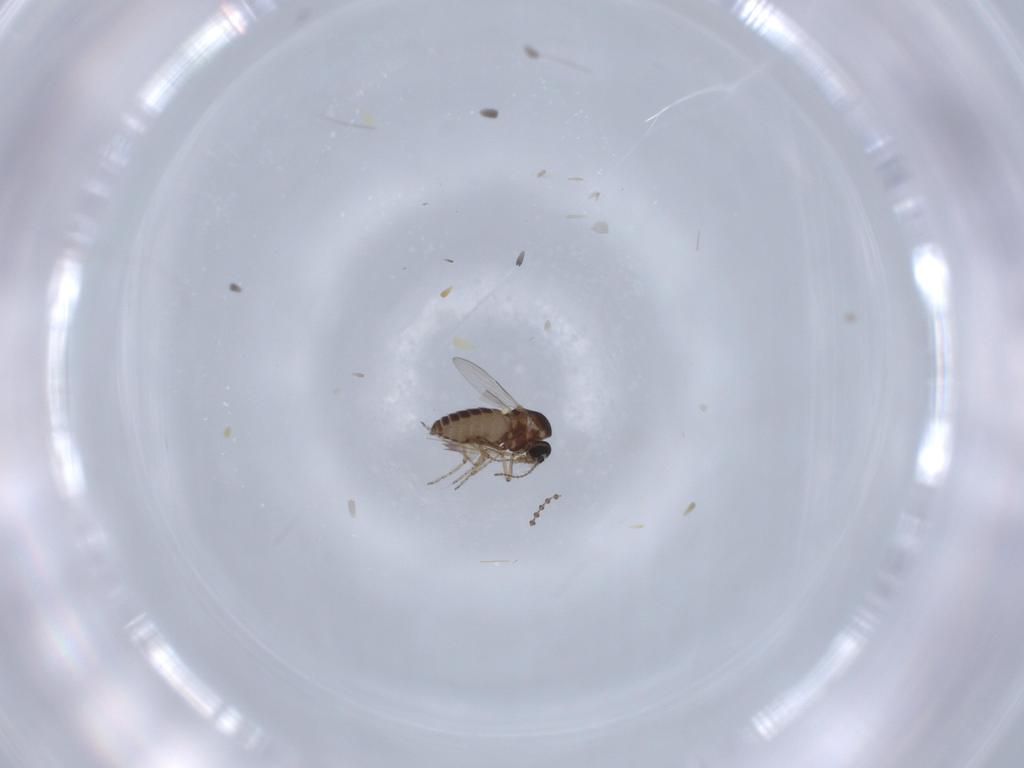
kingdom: Animalia
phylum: Arthropoda
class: Insecta
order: Diptera
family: Ceratopogonidae
